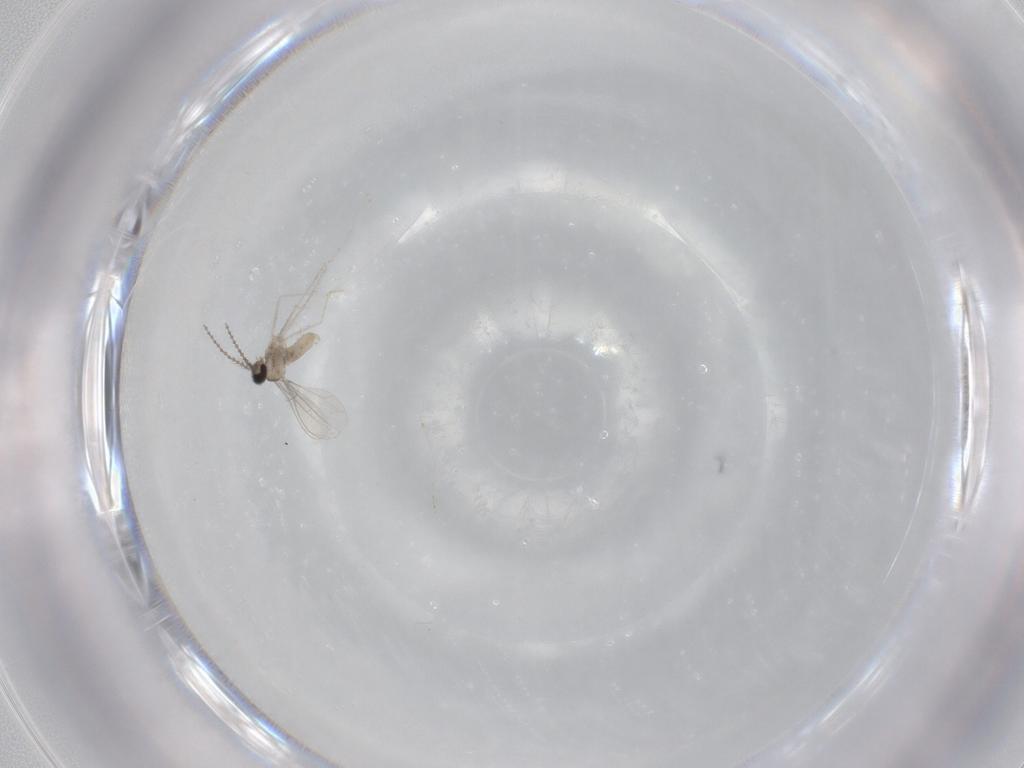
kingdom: Animalia
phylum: Arthropoda
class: Insecta
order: Diptera
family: Cecidomyiidae
